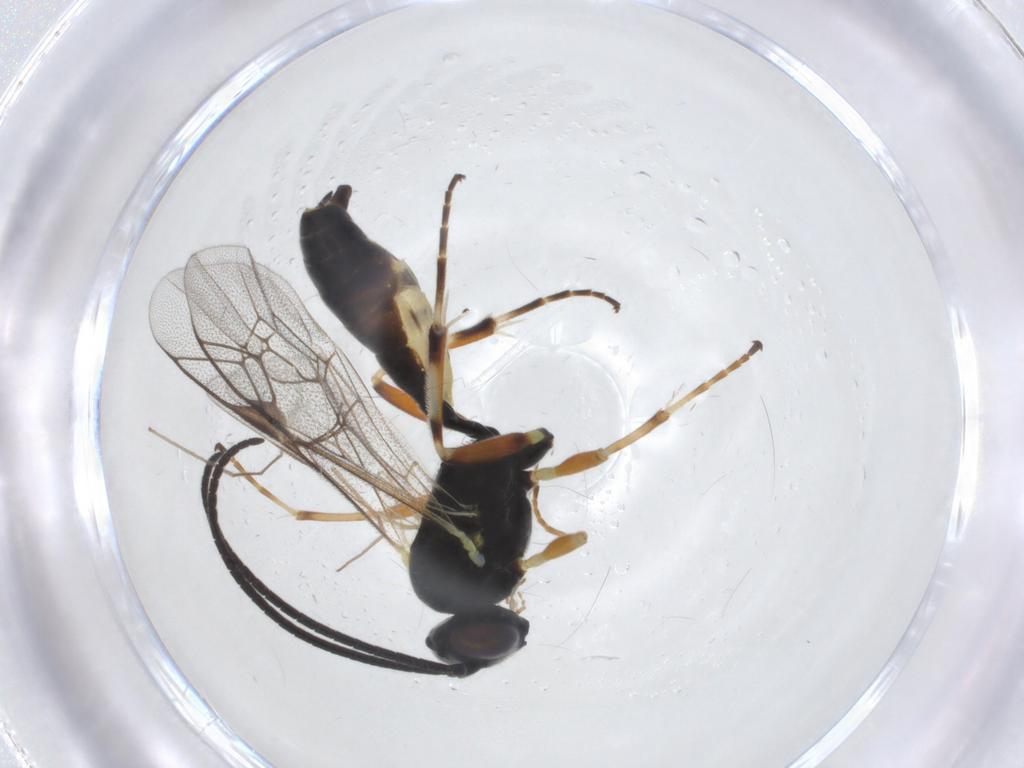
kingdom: Animalia
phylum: Arthropoda
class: Insecta
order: Hymenoptera
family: Ichneumonidae
